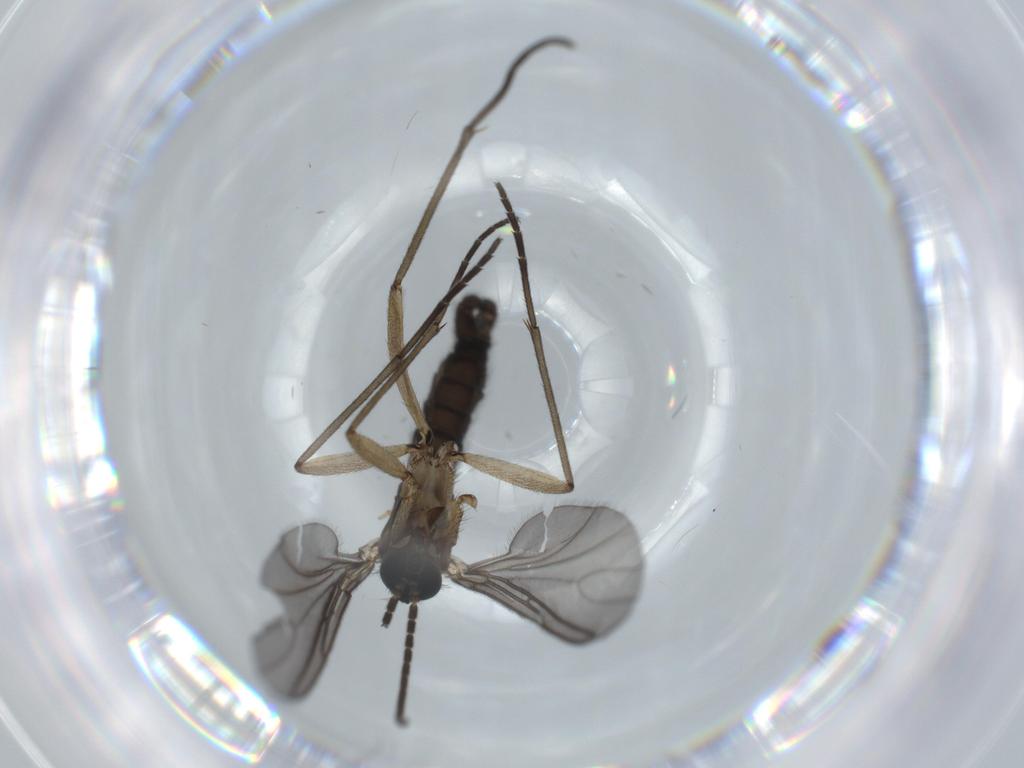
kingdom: Animalia
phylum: Arthropoda
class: Insecta
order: Diptera
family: Sciaridae
